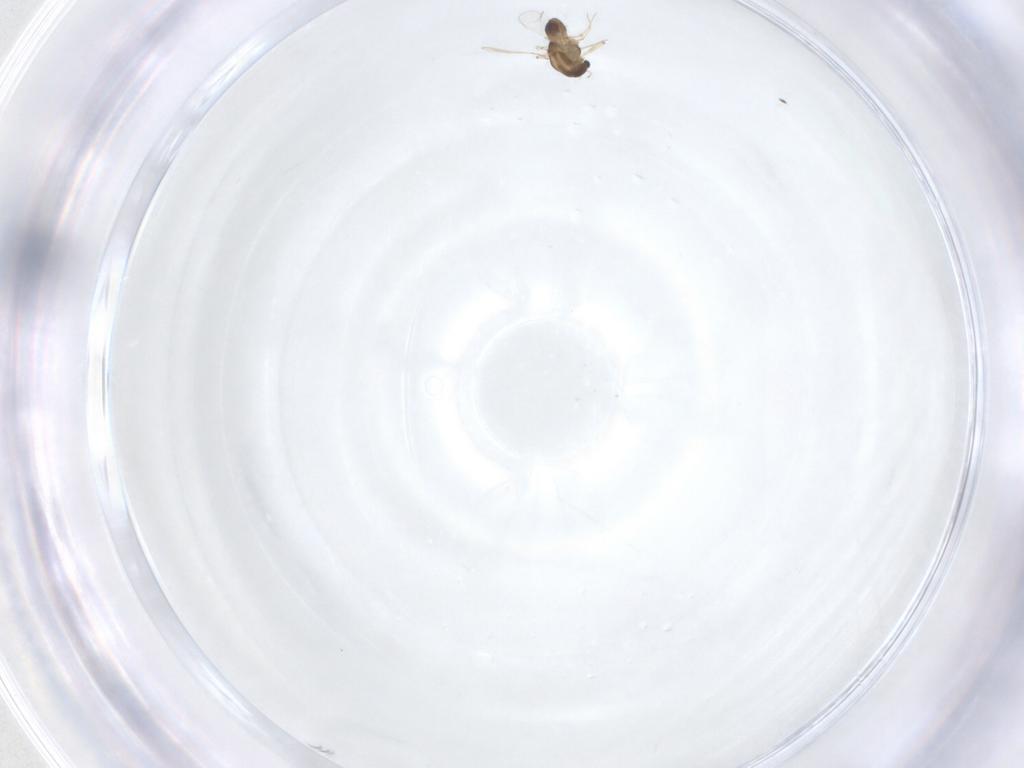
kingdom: Animalia
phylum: Arthropoda
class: Insecta
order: Diptera
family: Chironomidae
